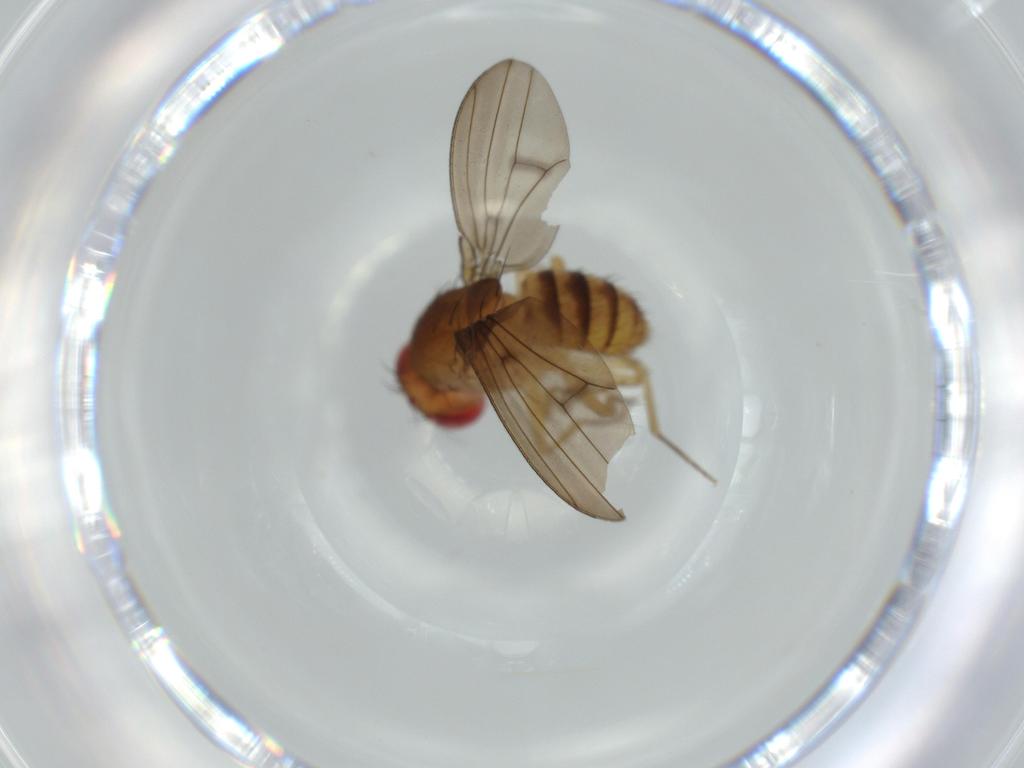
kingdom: Animalia
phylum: Arthropoda
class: Insecta
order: Diptera
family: Drosophilidae
